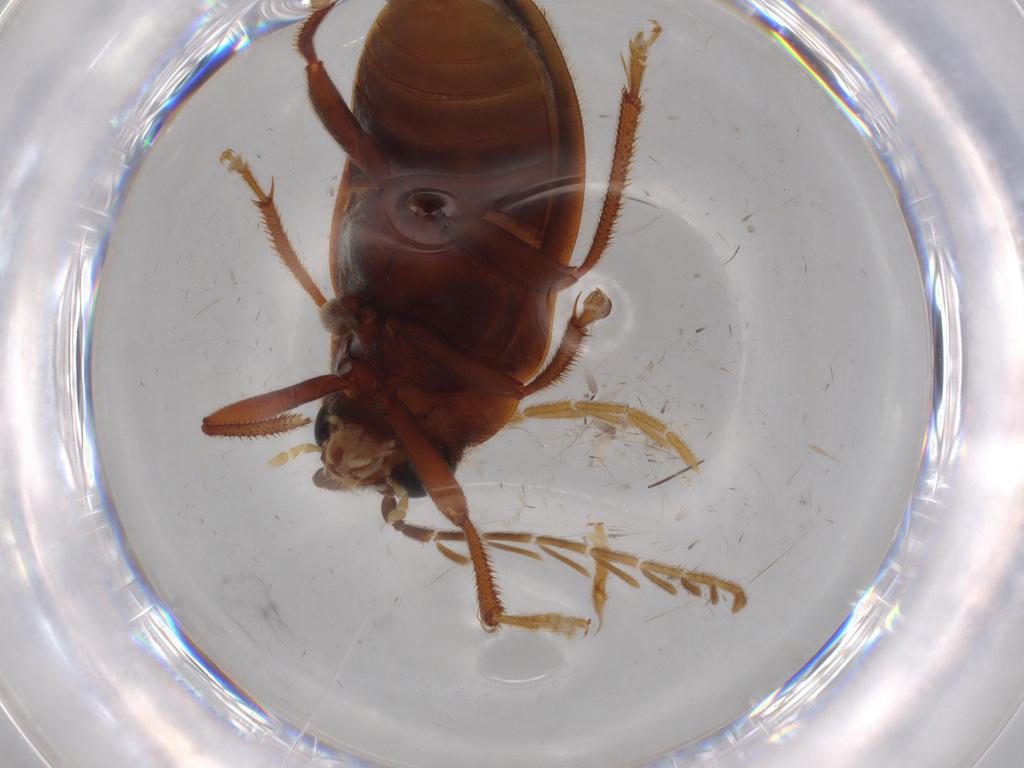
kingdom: Animalia
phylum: Arthropoda
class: Insecta
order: Coleoptera
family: Ptilodactylidae
